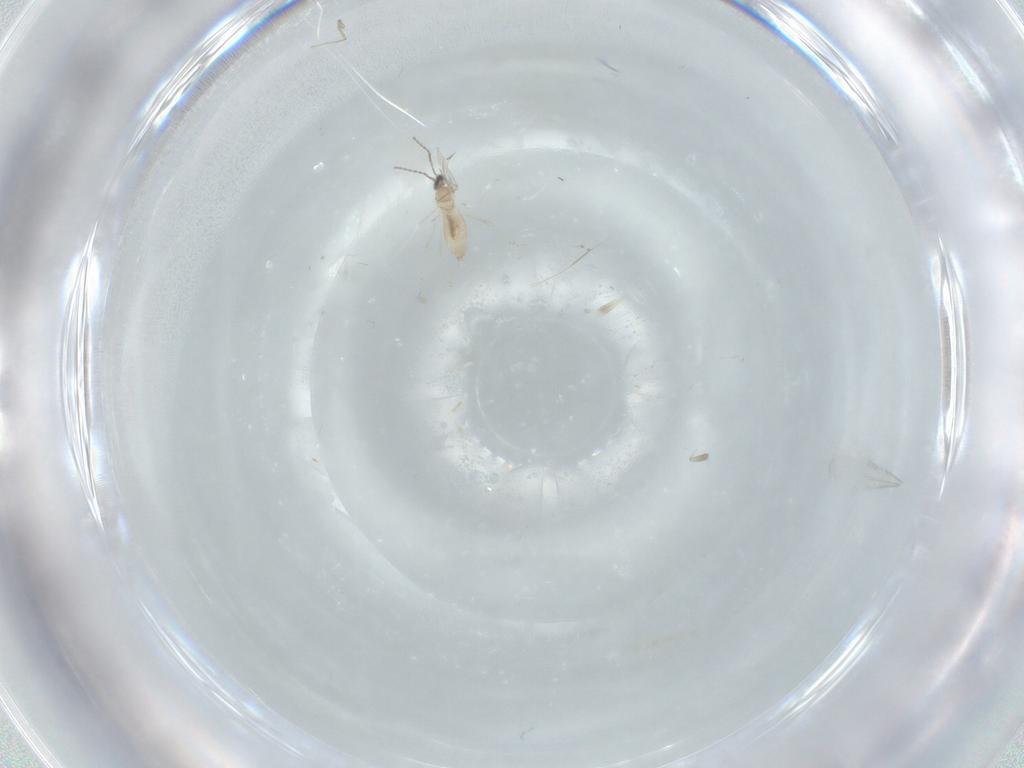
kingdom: Animalia
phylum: Arthropoda
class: Insecta
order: Diptera
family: Cecidomyiidae
